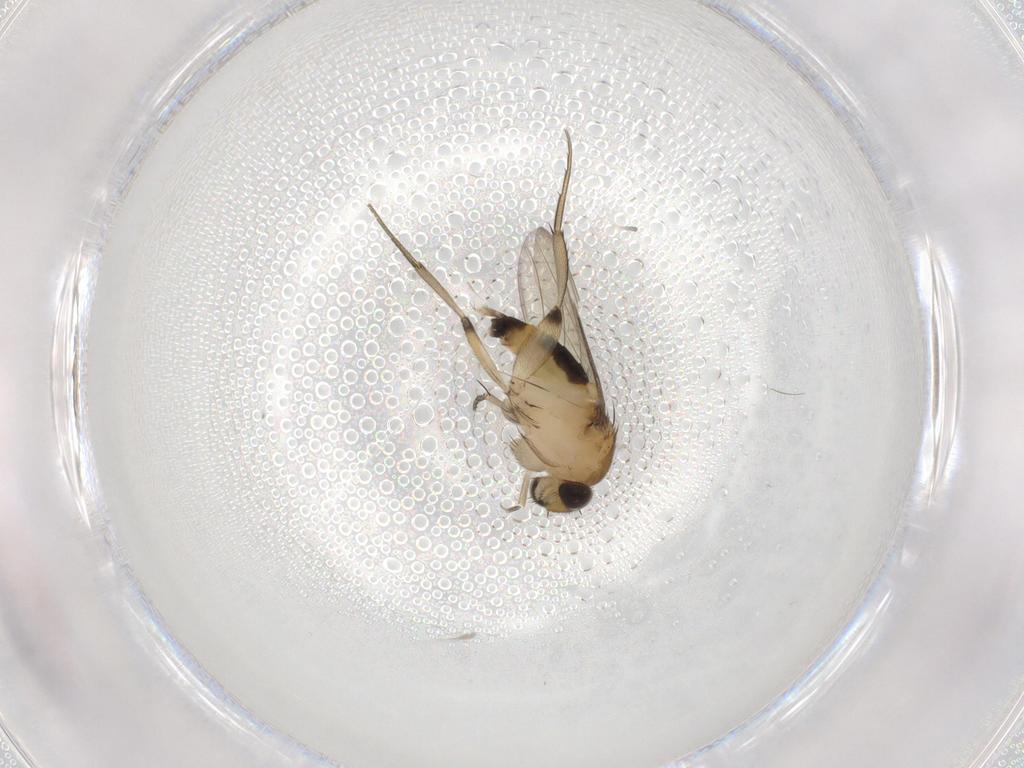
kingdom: Animalia
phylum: Arthropoda
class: Insecta
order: Diptera
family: Phoridae
